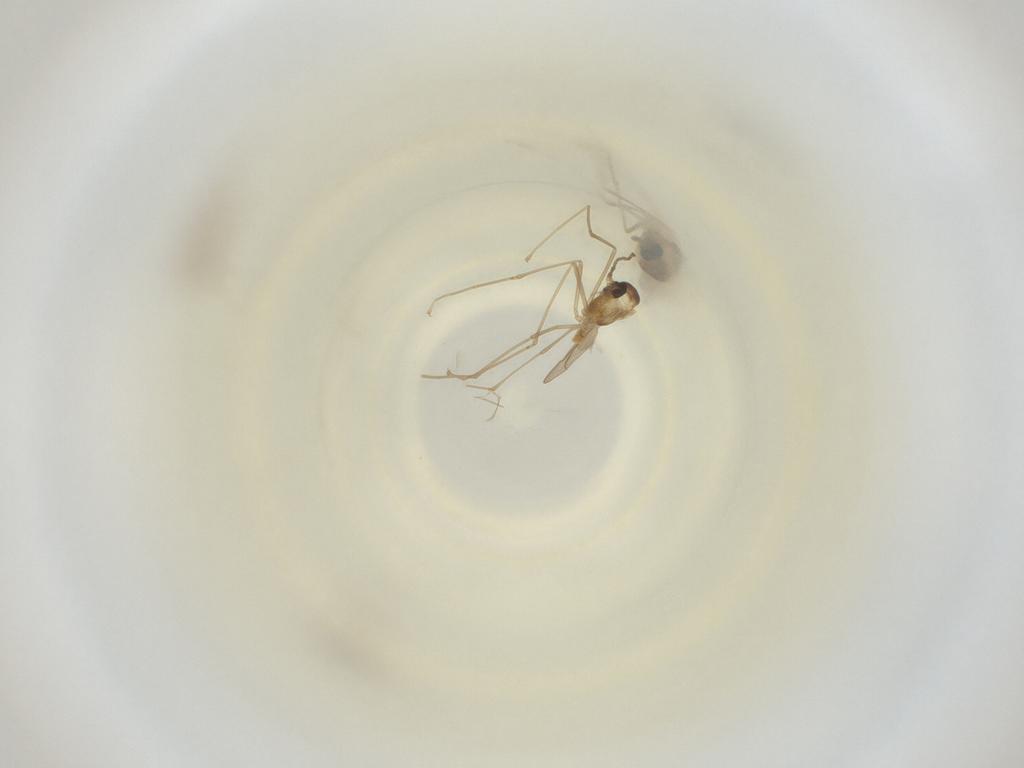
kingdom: Animalia
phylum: Arthropoda
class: Insecta
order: Diptera
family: Cecidomyiidae
